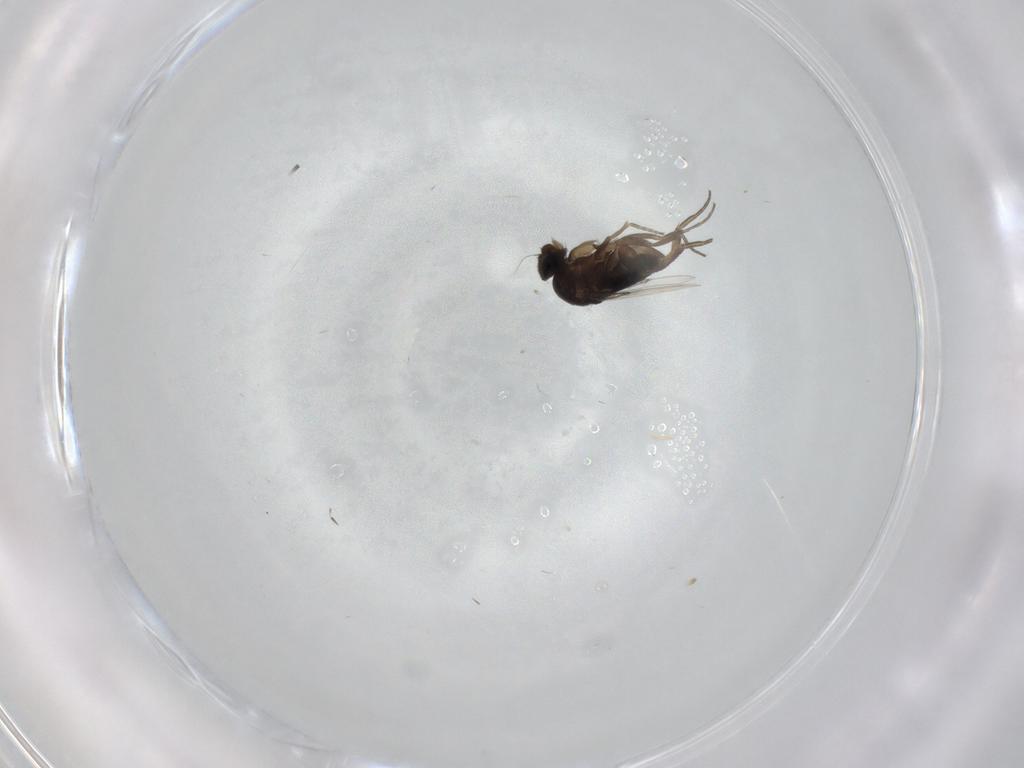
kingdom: Animalia
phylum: Arthropoda
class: Insecta
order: Diptera
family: Phoridae
